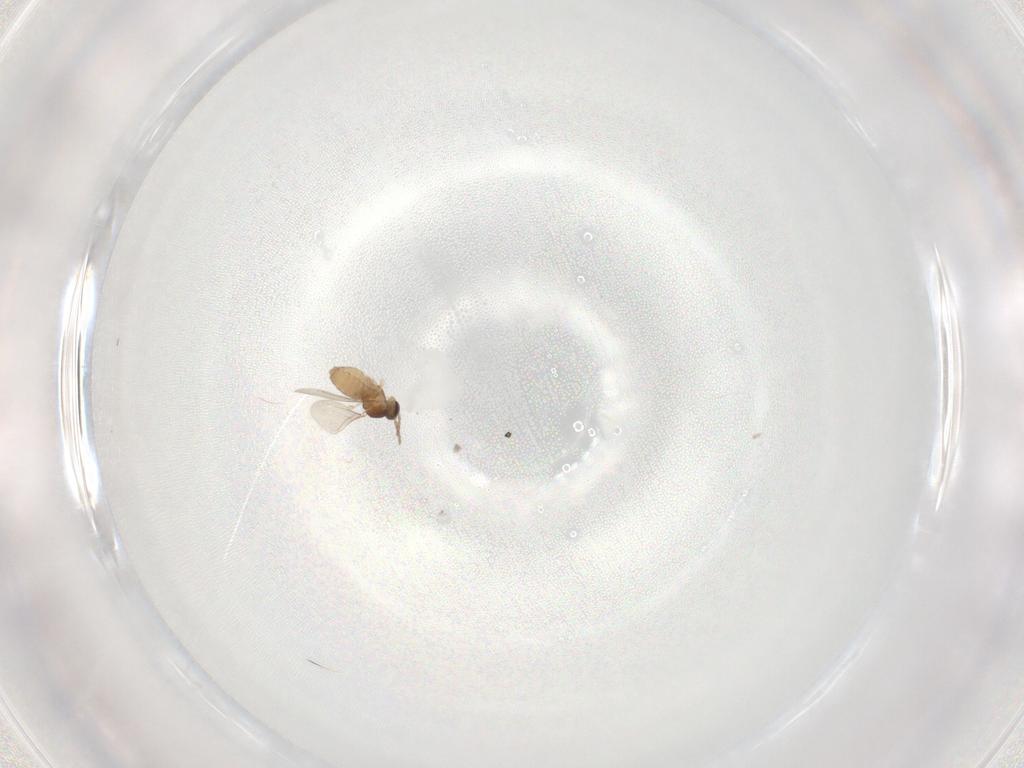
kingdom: Animalia
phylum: Arthropoda
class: Insecta
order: Diptera
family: Cecidomyiidae
